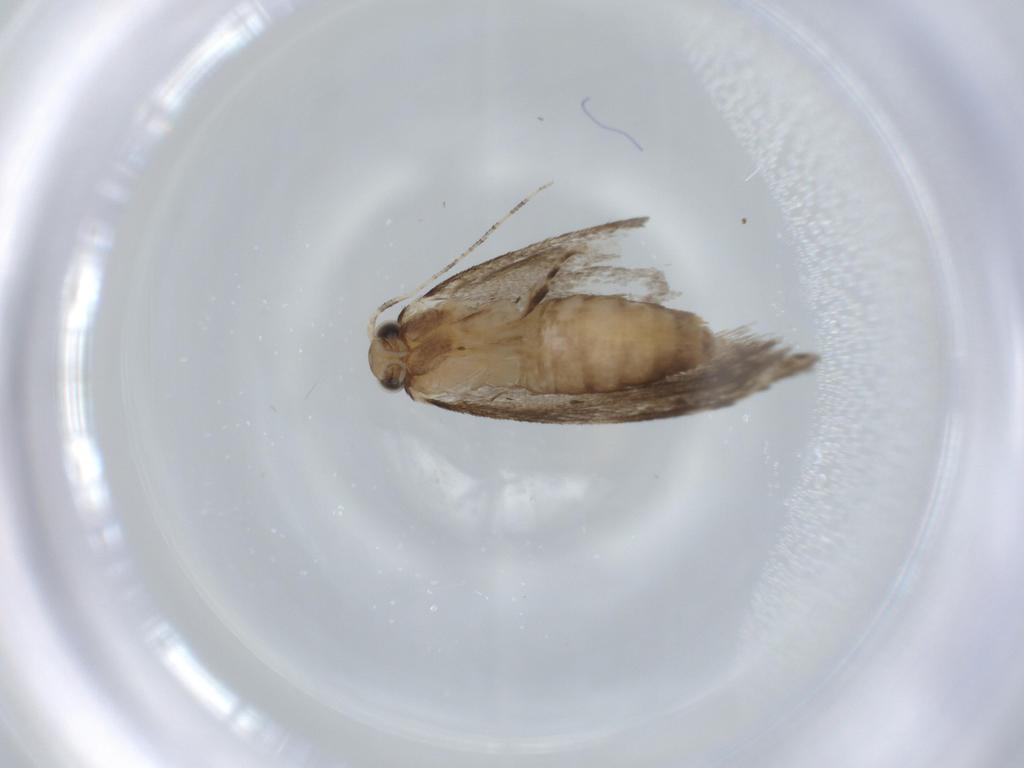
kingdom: Animalia
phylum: Arthropoda
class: Insecta
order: Lepidoptera
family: Tineidae
